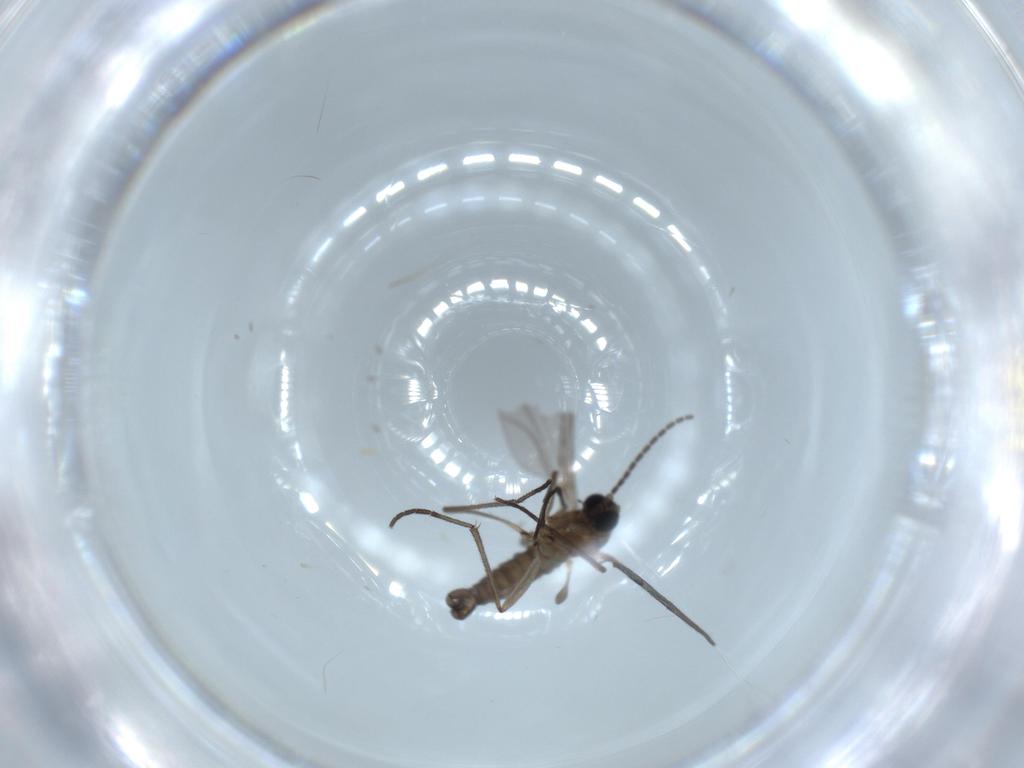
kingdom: Animalia
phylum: Arthropoda
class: Insecta
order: Diptera
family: Sciaridae
